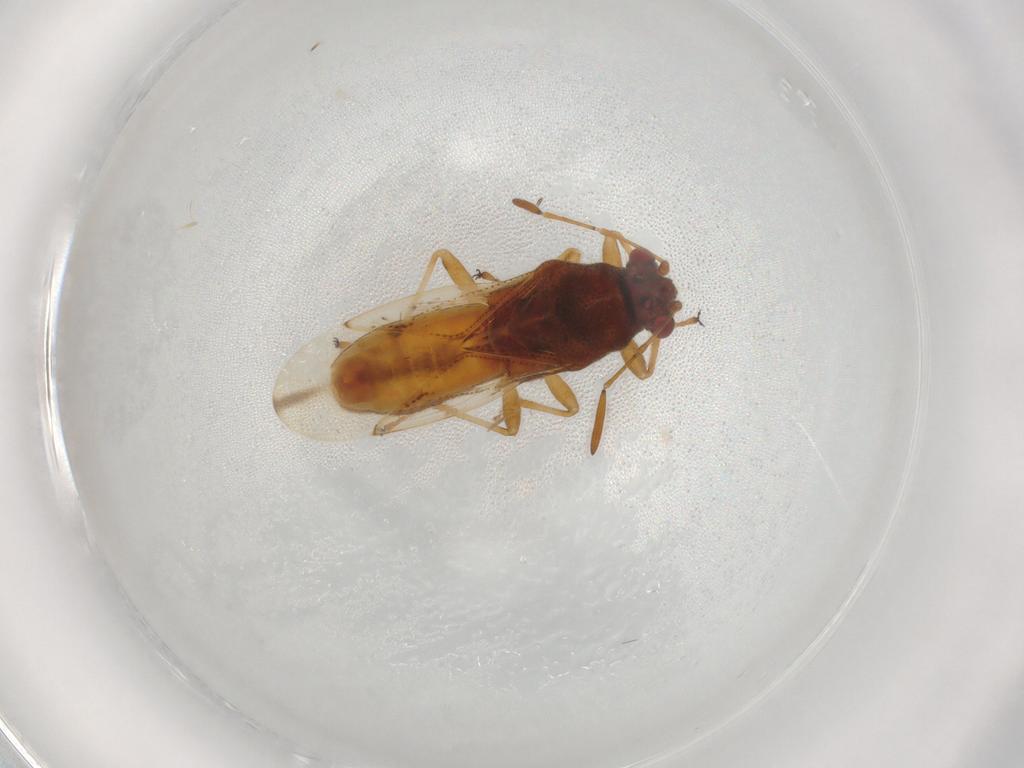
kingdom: Animalia
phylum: Arthropoda
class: Insecta
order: Hemiptera
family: Coreidae
